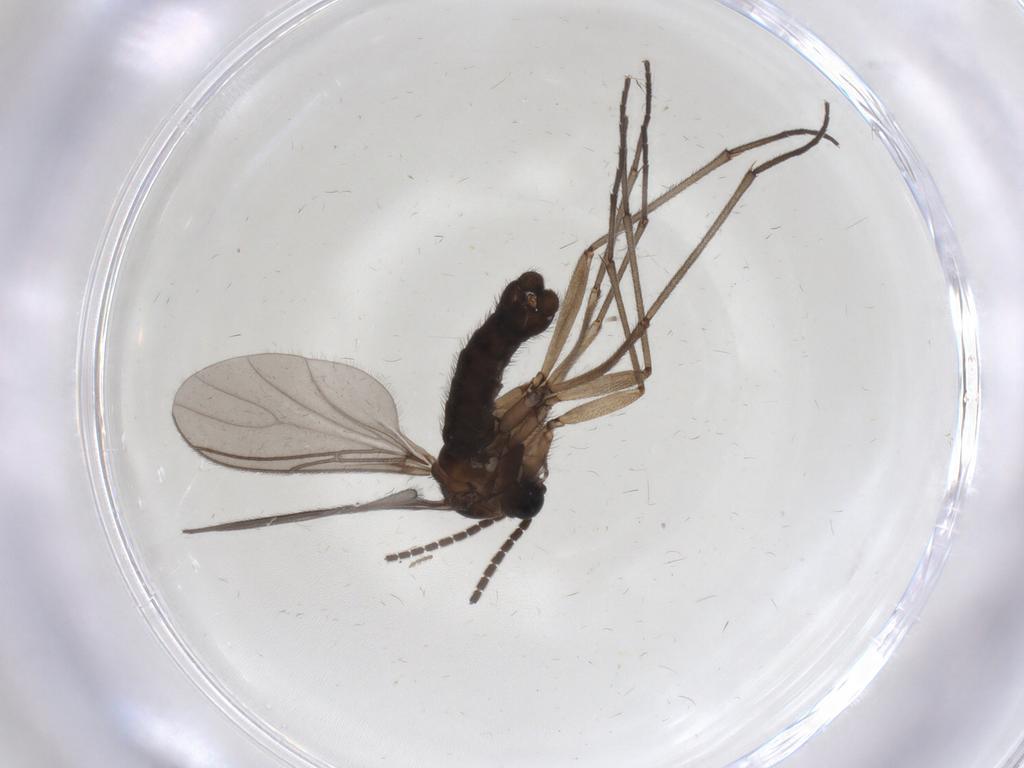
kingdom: Animalia
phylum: Arthropoda
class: Insecta
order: Diptera
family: Sciaridae
